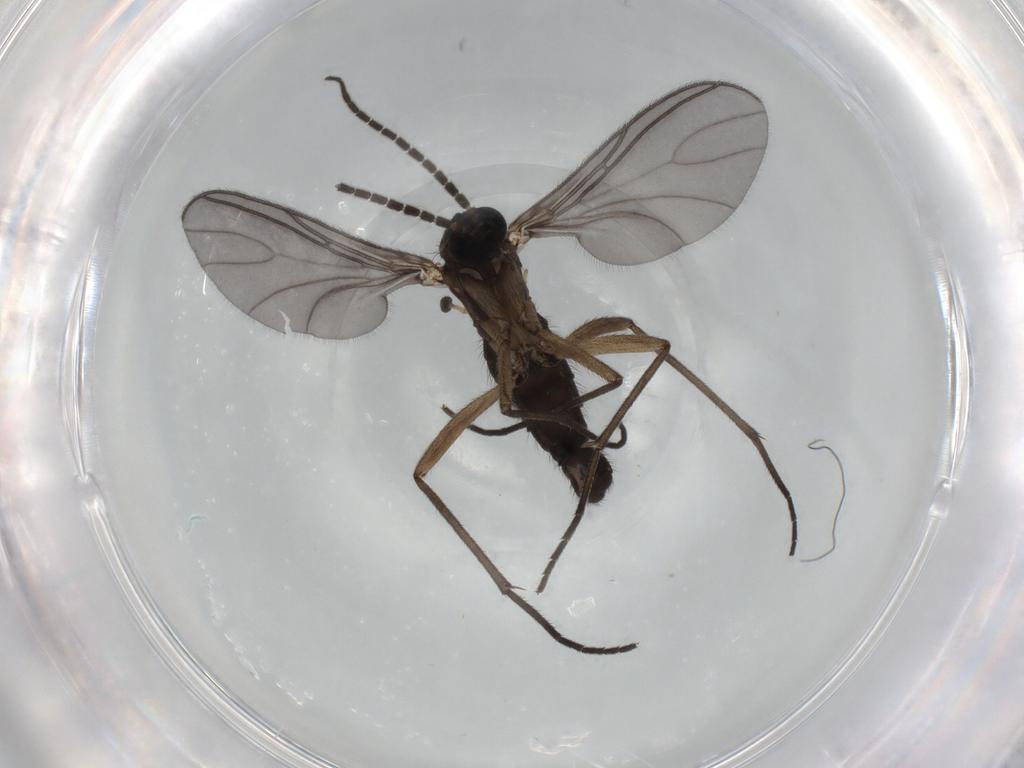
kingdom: Animalia
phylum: Arthropoda
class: Insecta
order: Diptera
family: Sciaridae
